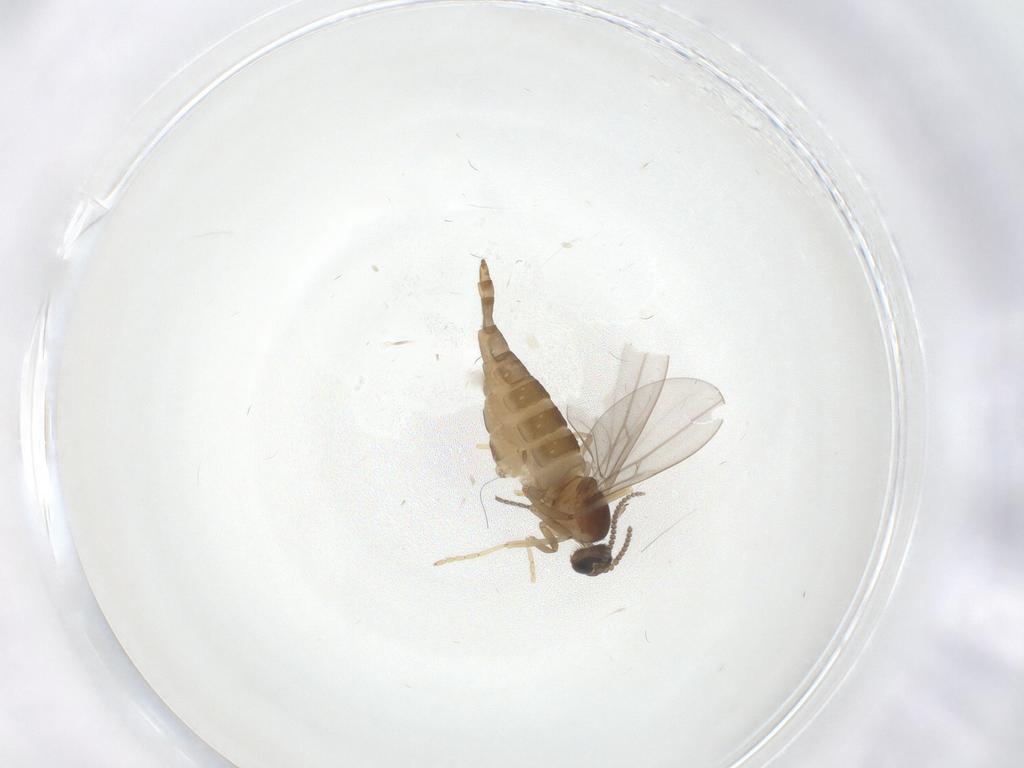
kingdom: Animalia
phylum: Arthropoda
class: Insecta
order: Diptera
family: Cecidomyiidae
